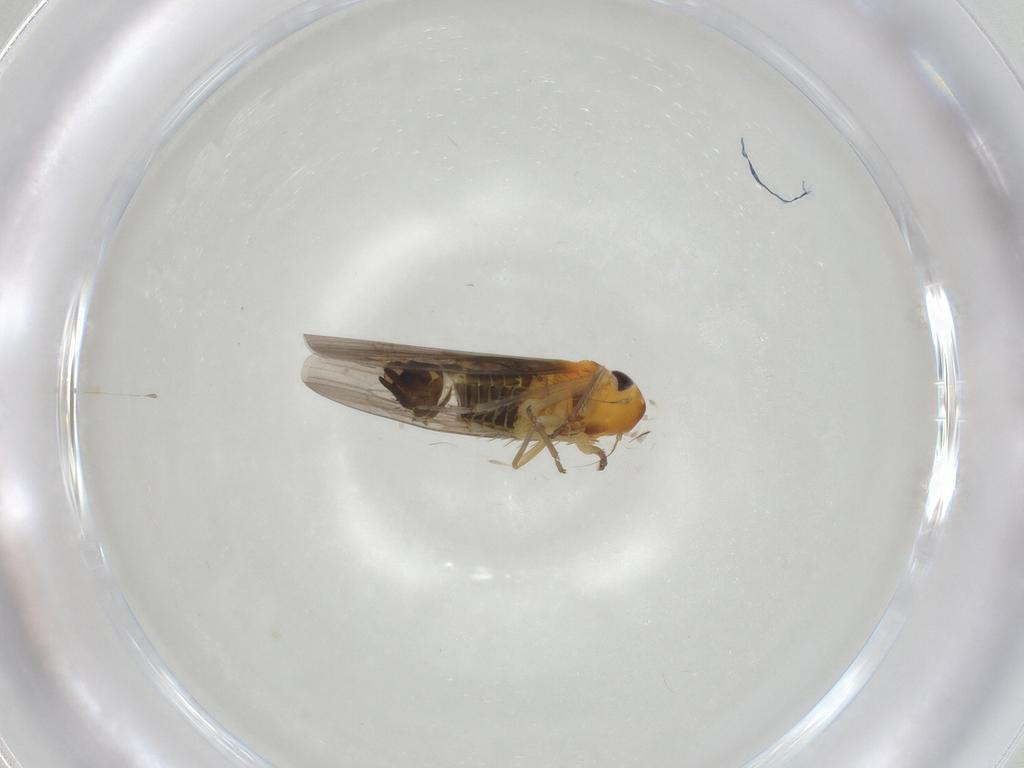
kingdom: Animalia
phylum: Arthropoda
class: Insecta
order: Hemiptera
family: Cicadellidae
